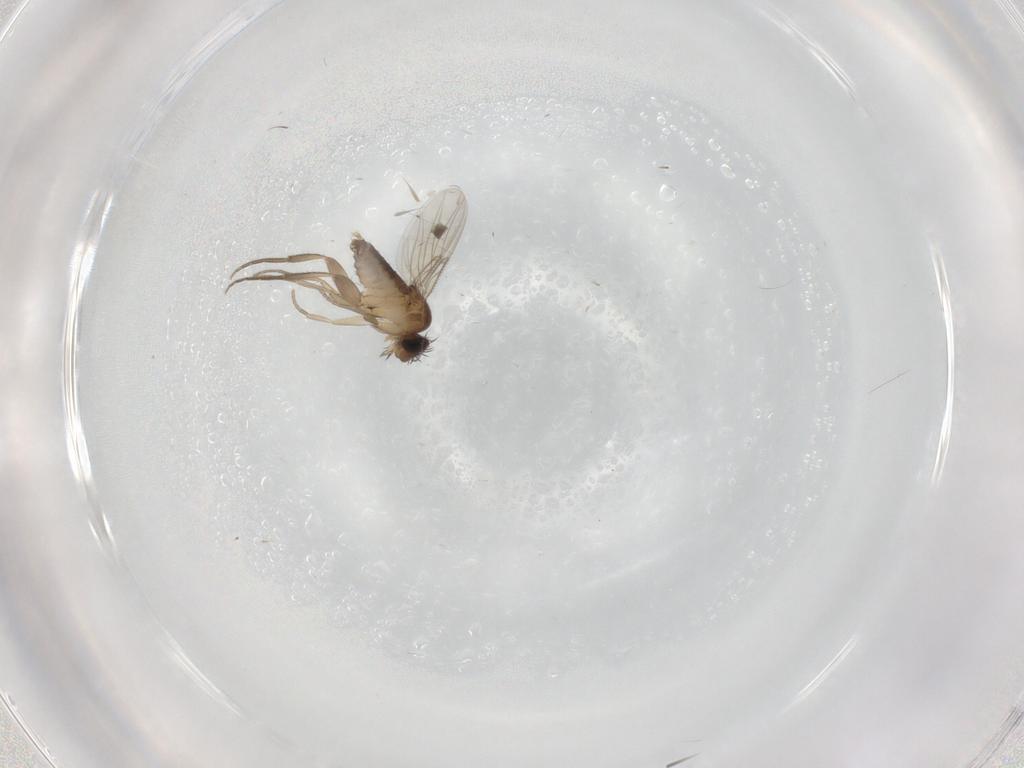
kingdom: Animalia
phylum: Arthropoda
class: Insecta
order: Diptera
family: Phoridae
